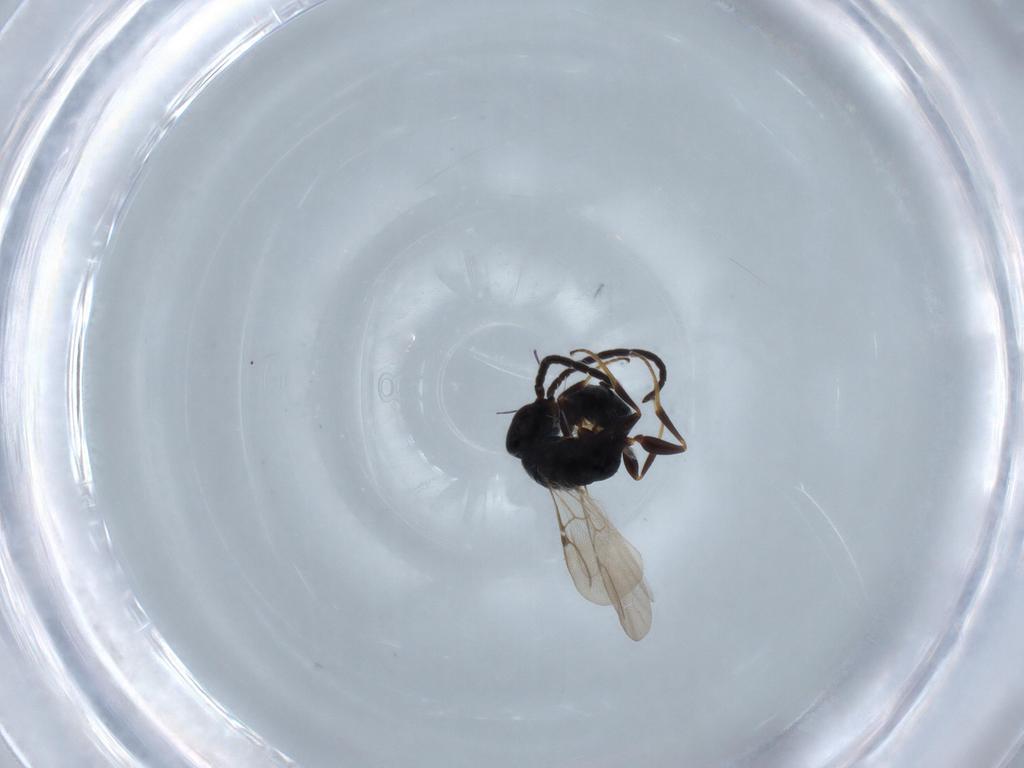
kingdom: Animalia
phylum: Arthropoda
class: Insecta
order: Hymenoptera
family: Bethylidae
